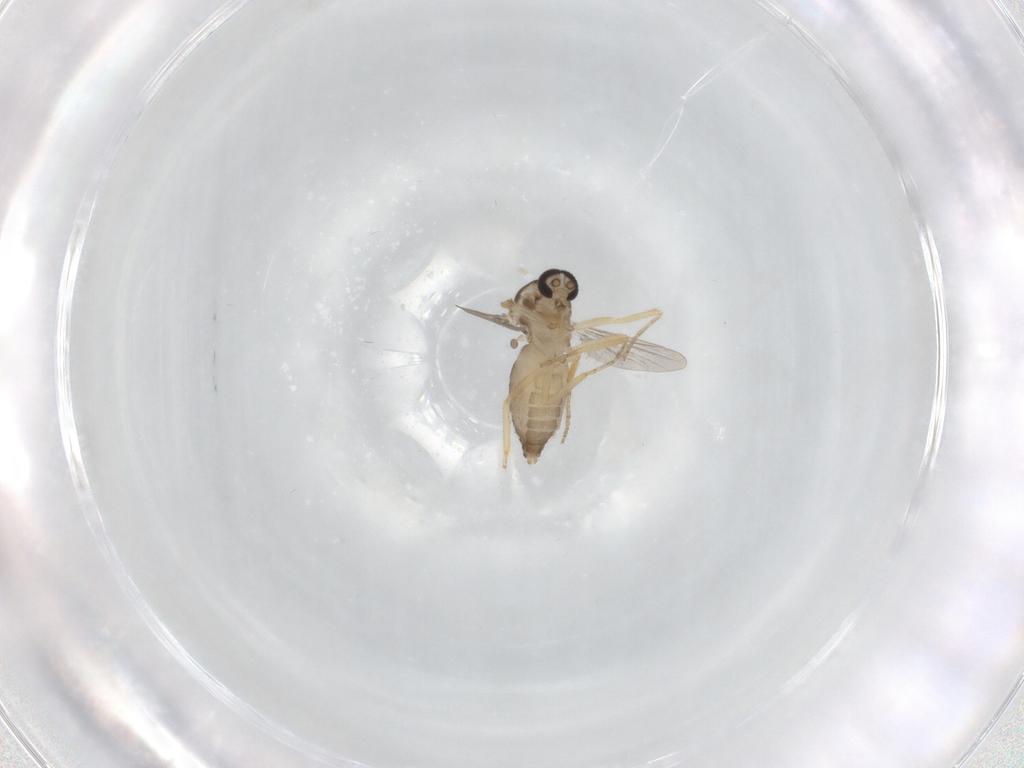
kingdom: Animalia
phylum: Arthropoda
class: Insecta
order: Diptera
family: Ceratopogonidae
